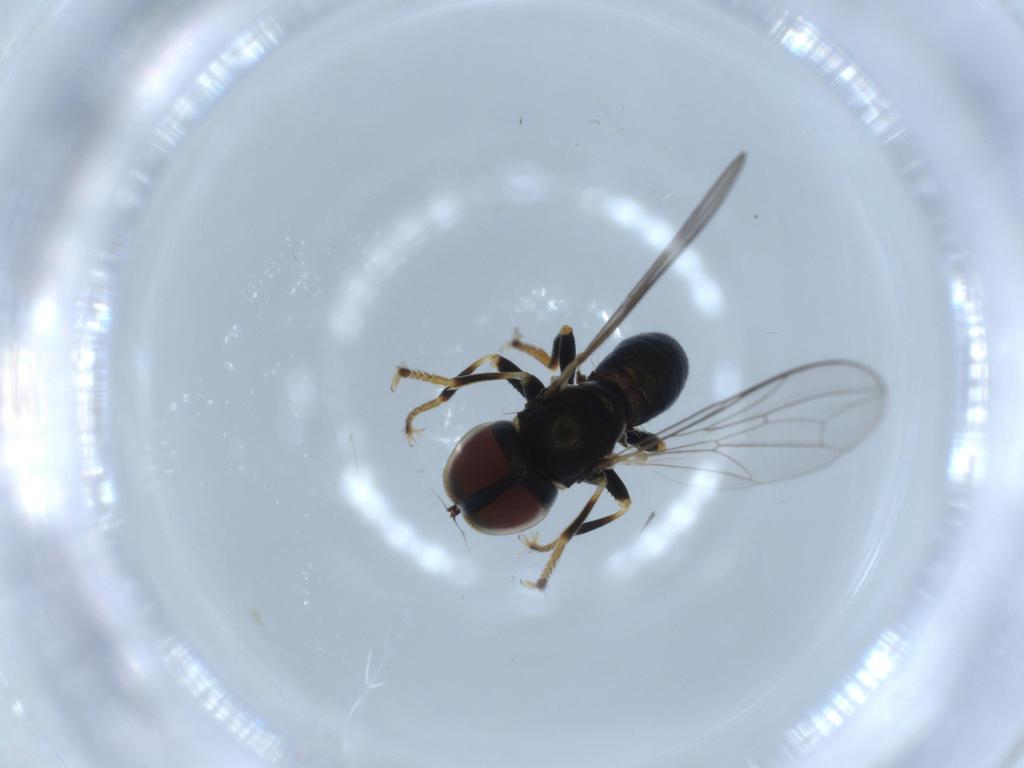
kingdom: Animalia
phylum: Arthropoda
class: Insecta
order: Diptera
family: Pipunculidae
